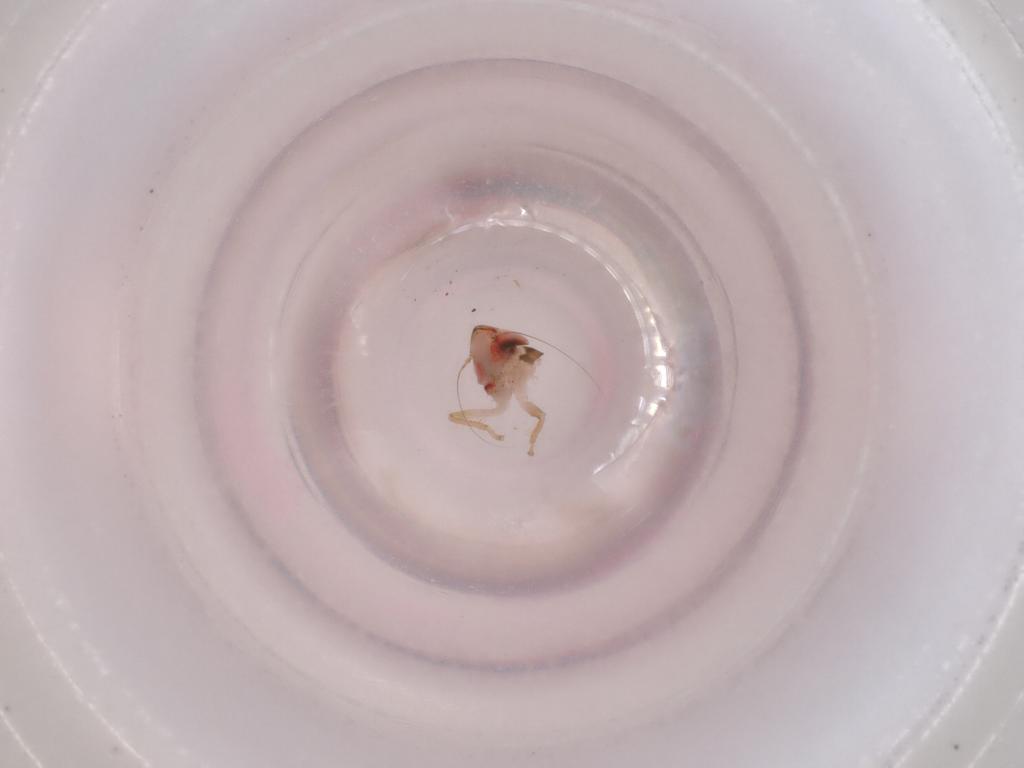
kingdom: Animalia
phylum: Arthropoda
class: Insecta
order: Hemiptera
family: Cicadellidae
